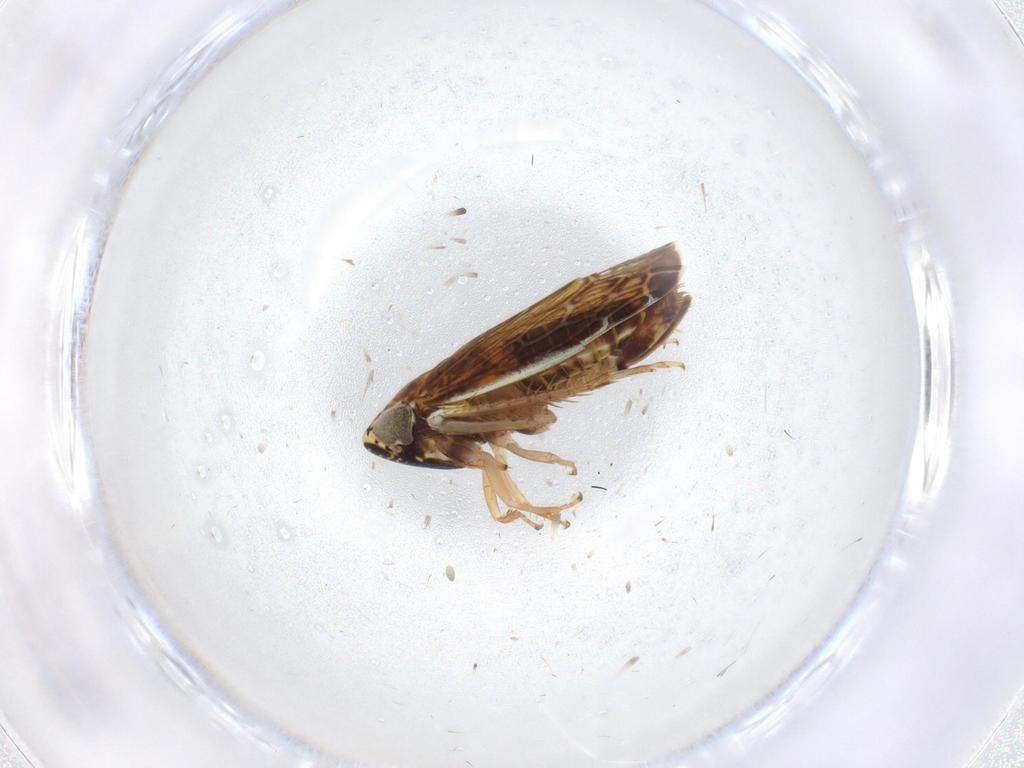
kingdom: Animalia
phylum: Arthropoda
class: Insecta
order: Hemiptera
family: Cicadellidae
